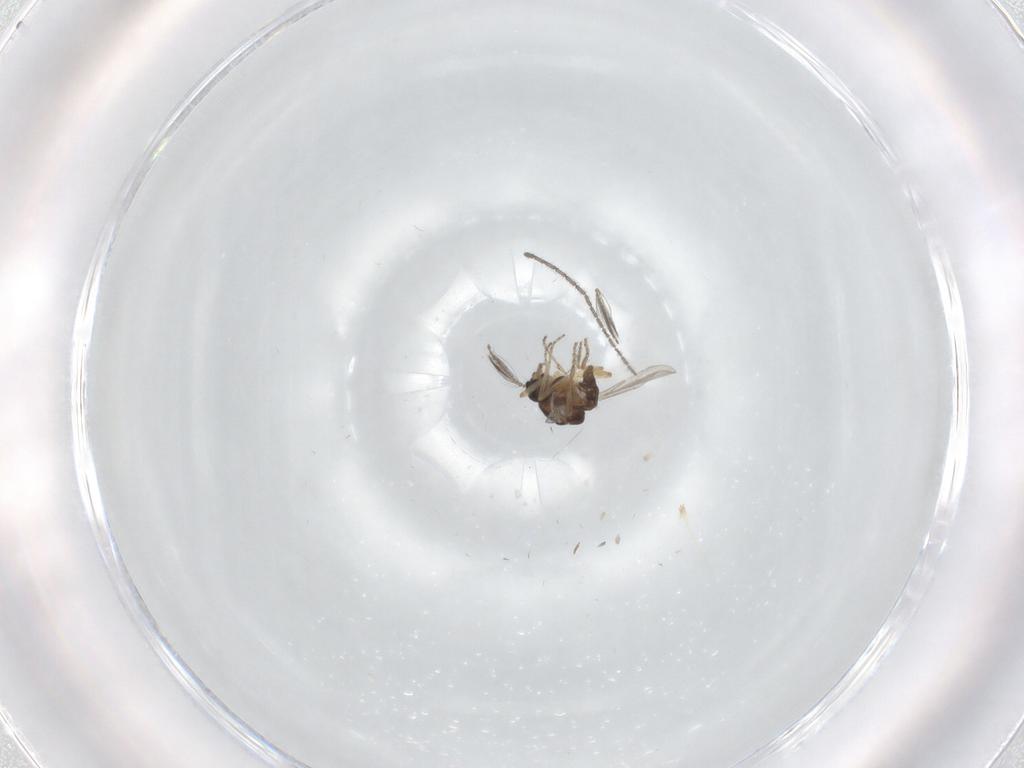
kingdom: Animalia
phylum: Arthropoda
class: Insecta
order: Diptera
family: Ceratopogonidae
